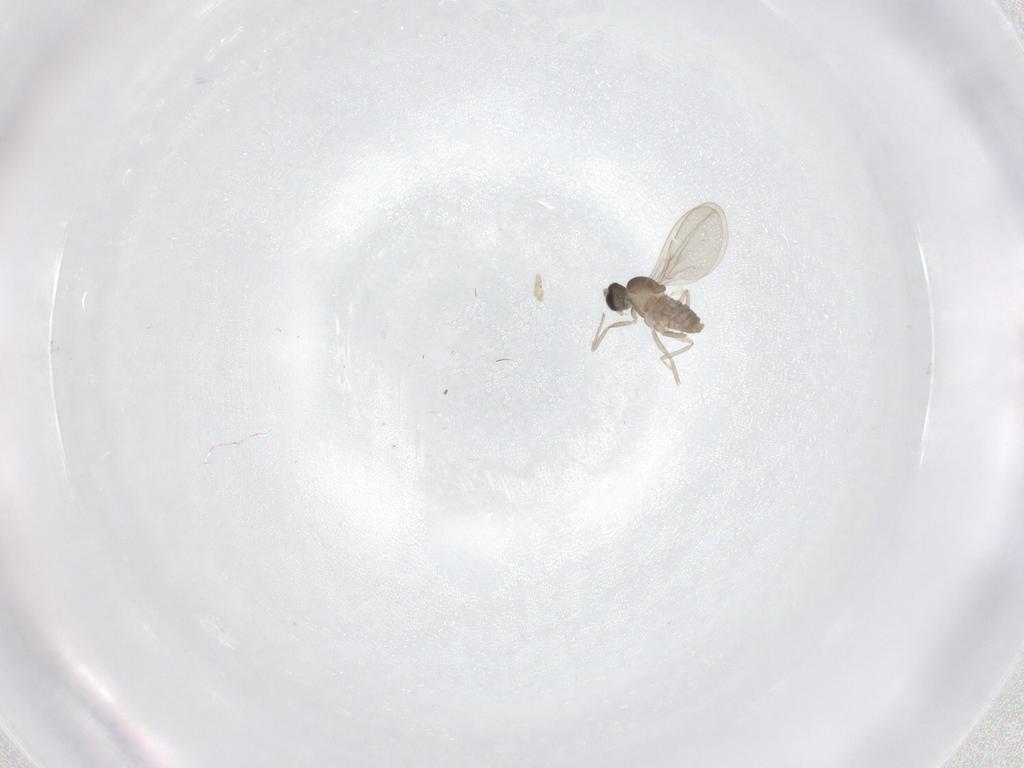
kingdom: Animalia
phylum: Arthropoda
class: Insecta
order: Diptera
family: Cecidomyiidae
